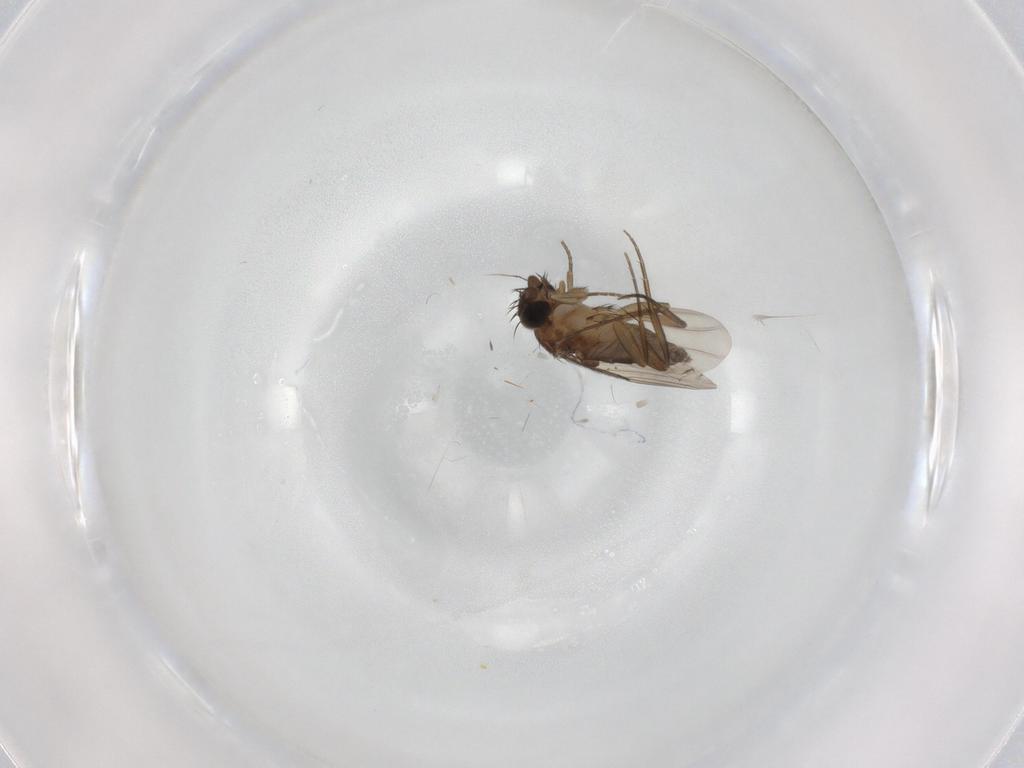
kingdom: Animalia
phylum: Arthropoda
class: Insecta
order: Diptera
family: Phoridae
